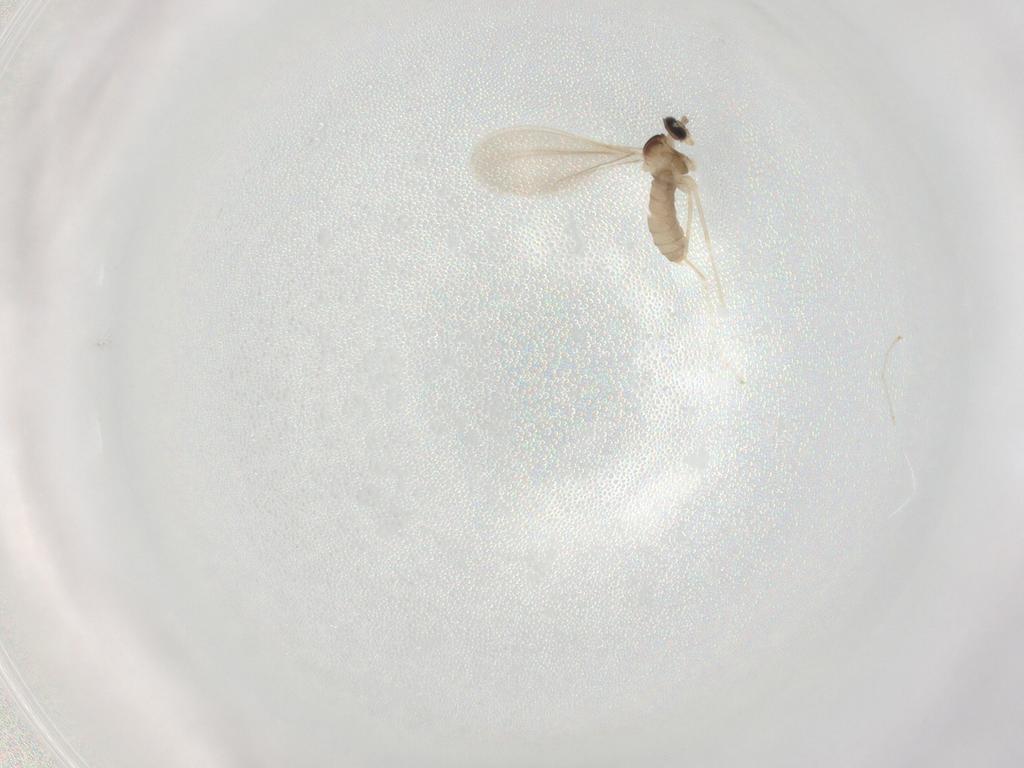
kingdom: Animalia
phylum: Arthropoda
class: Insecta
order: Diptera
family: Cecidomyiidae
